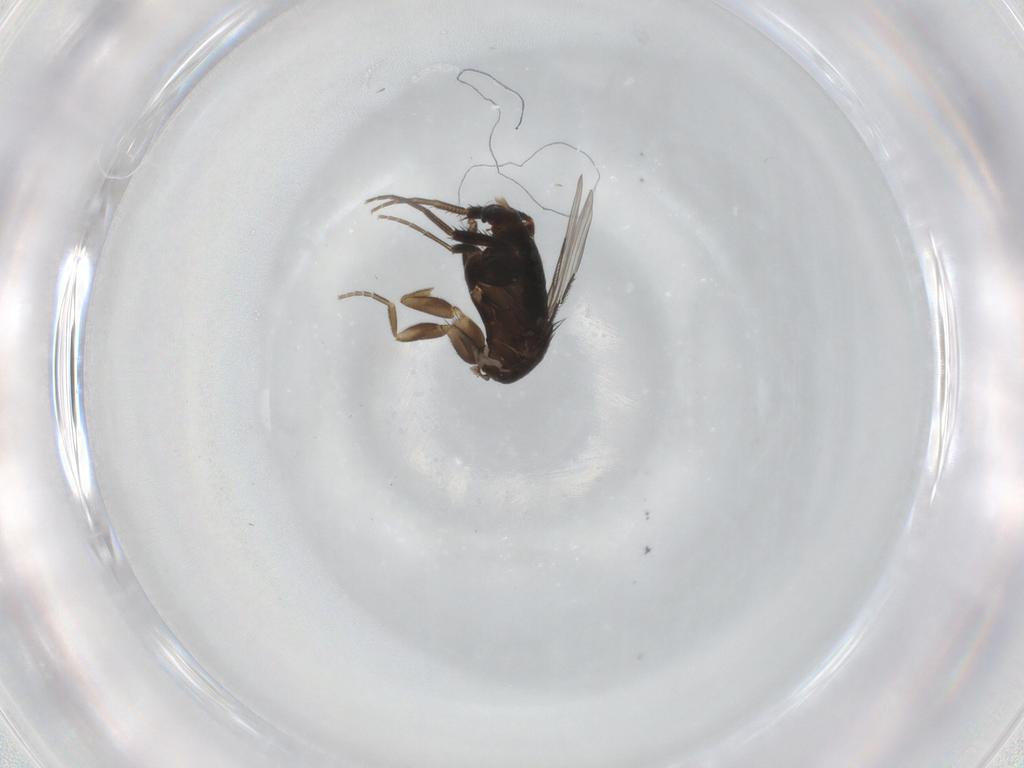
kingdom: Animalia
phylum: Arthropoda
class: Insecta
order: Diptera
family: Phoridae
